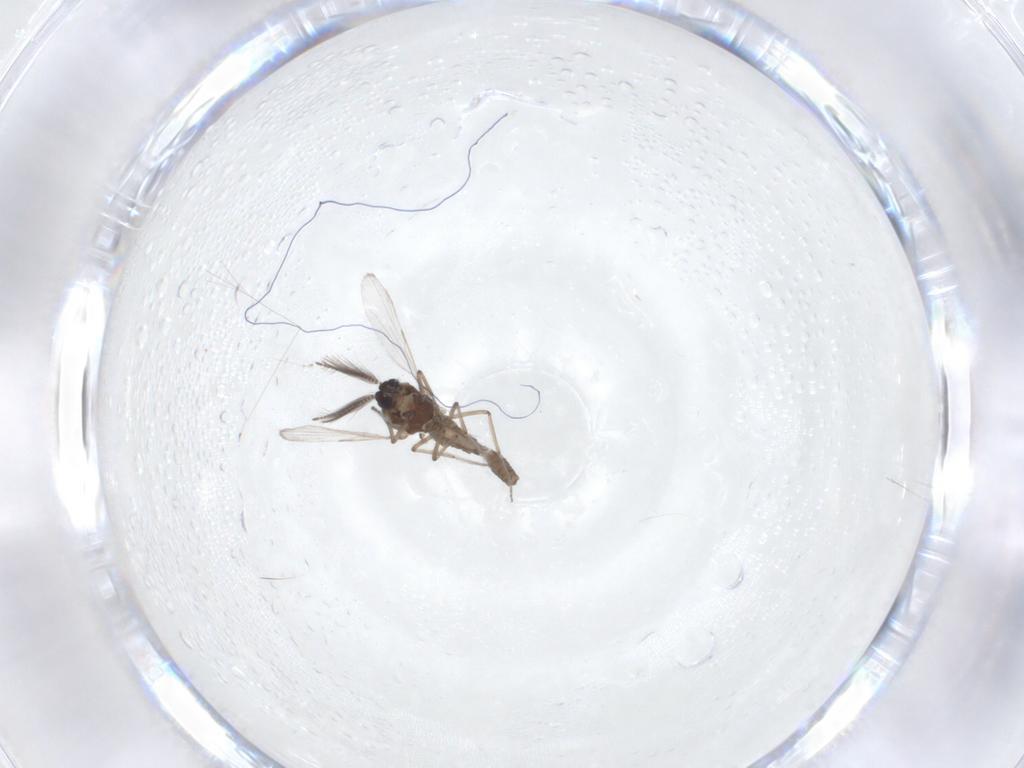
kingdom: Animalia
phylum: Arthropoda
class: Insecta
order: Diptera
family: Ceratopogonidae
